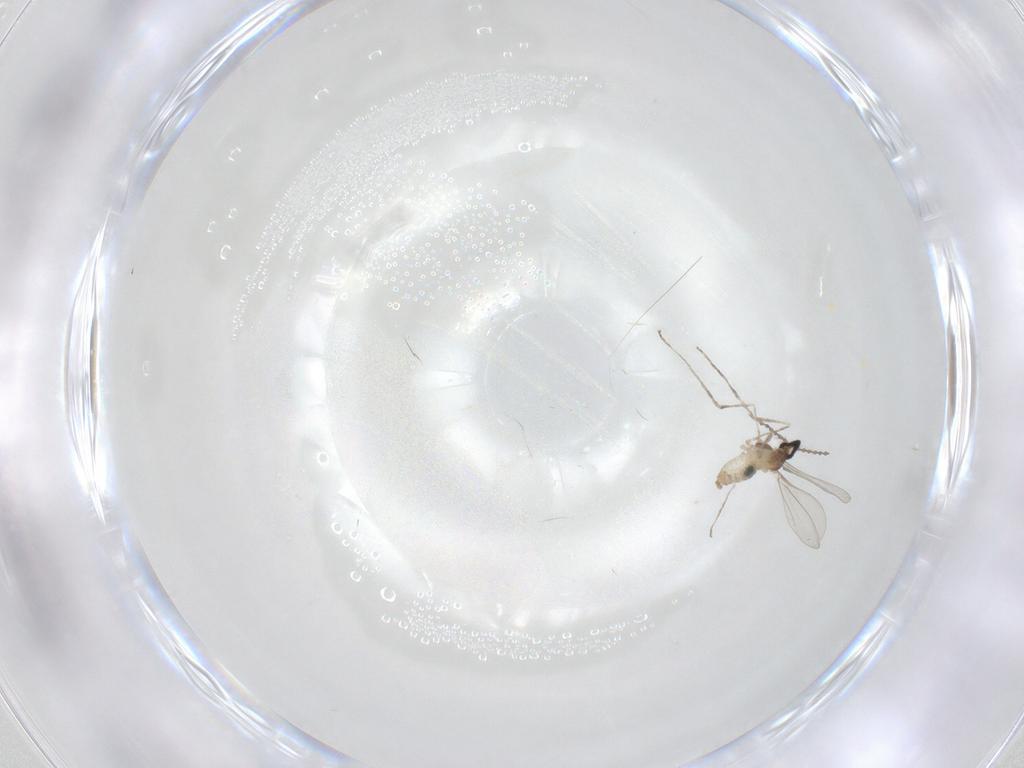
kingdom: Animalia
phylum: Arthropoda
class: Insecta
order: Diptera
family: Cecidomyiidae
